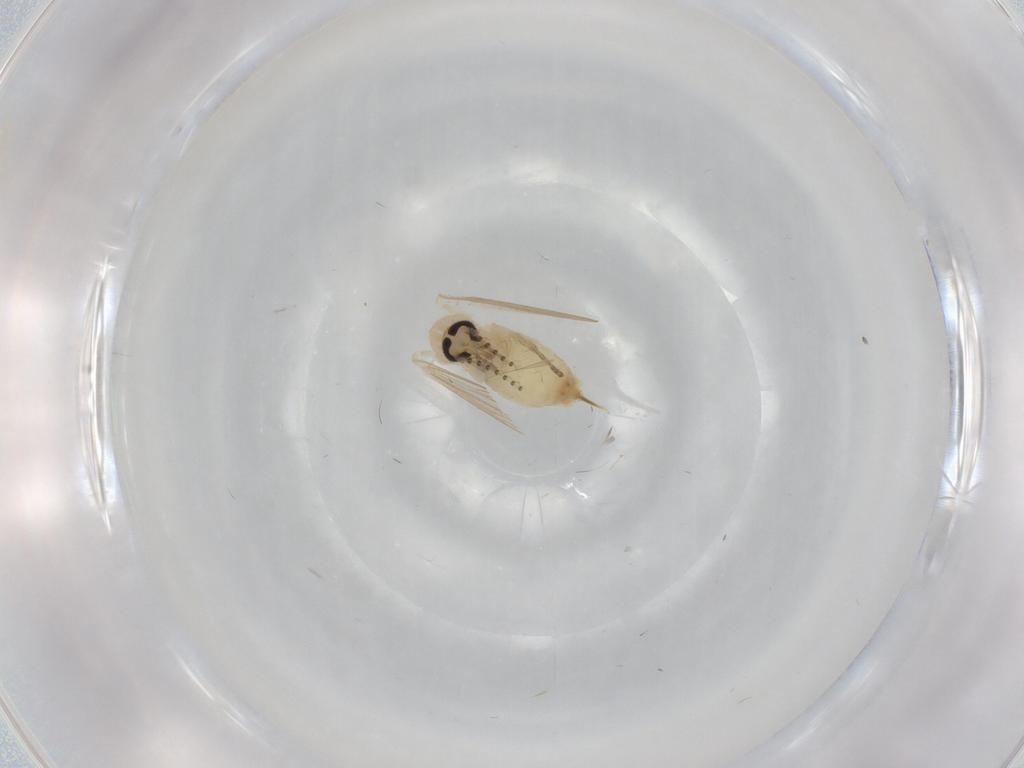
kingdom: Animalia
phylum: Arthropoda
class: Insecta
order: Diptera
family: Psychodidae
